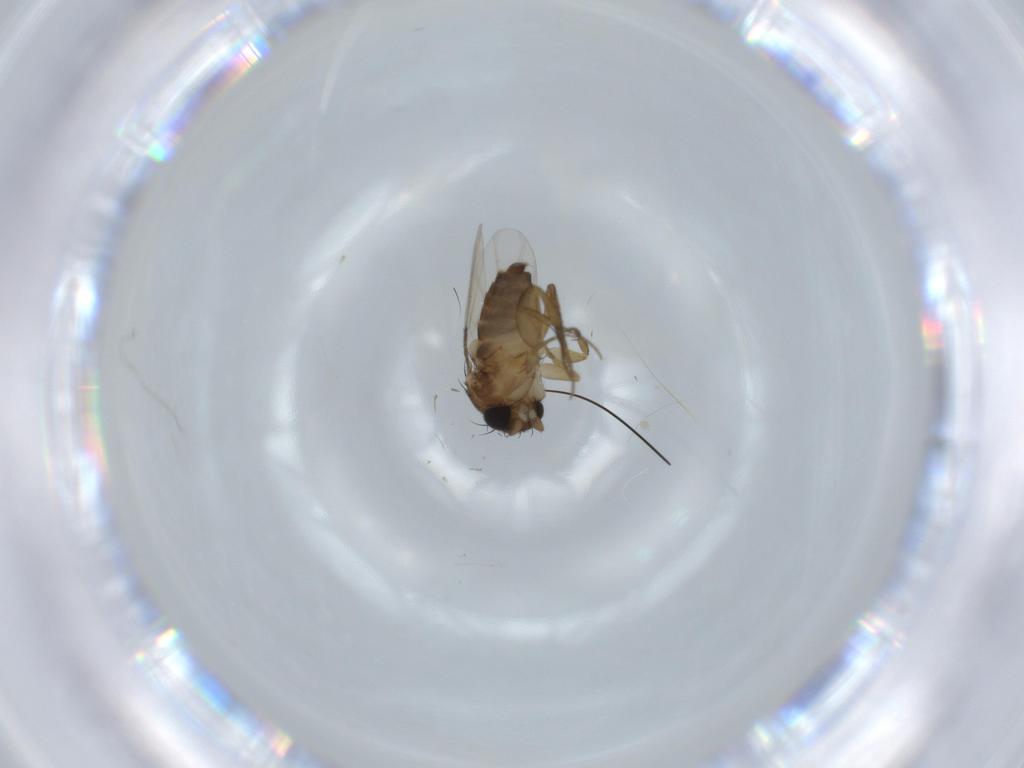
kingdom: Animalia
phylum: Arthropoda
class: Insecta
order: Diptera
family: Phoridae
